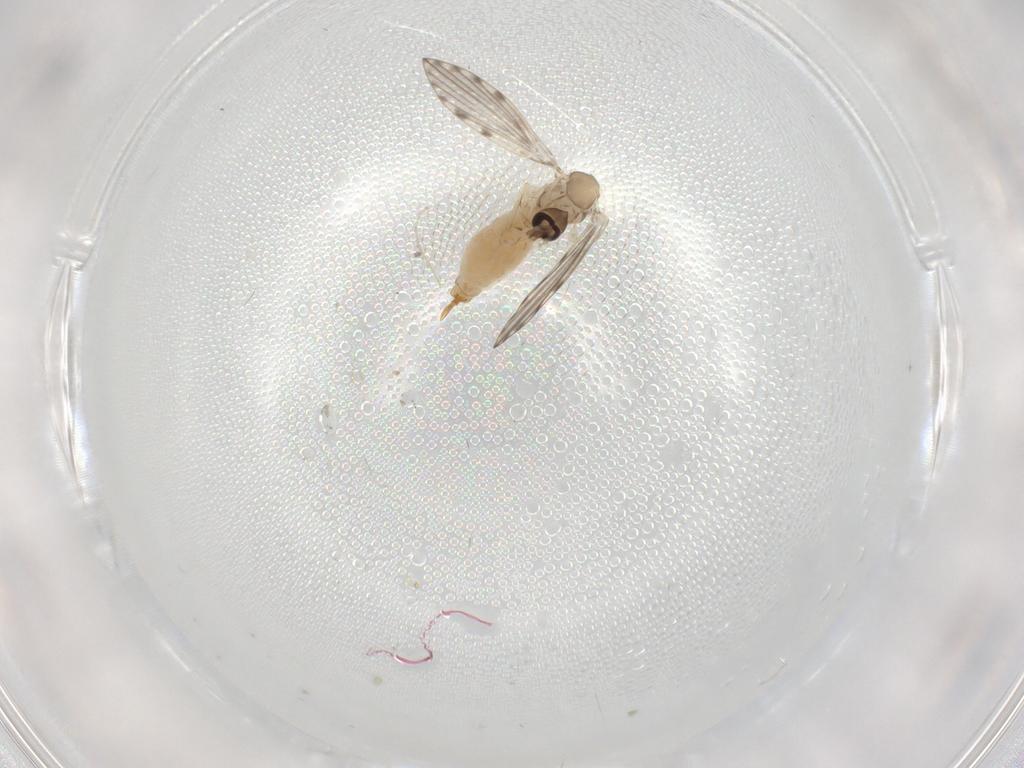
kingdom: Animalia
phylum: Arthropoda
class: Insecta
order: Diptera
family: Psychodidae
